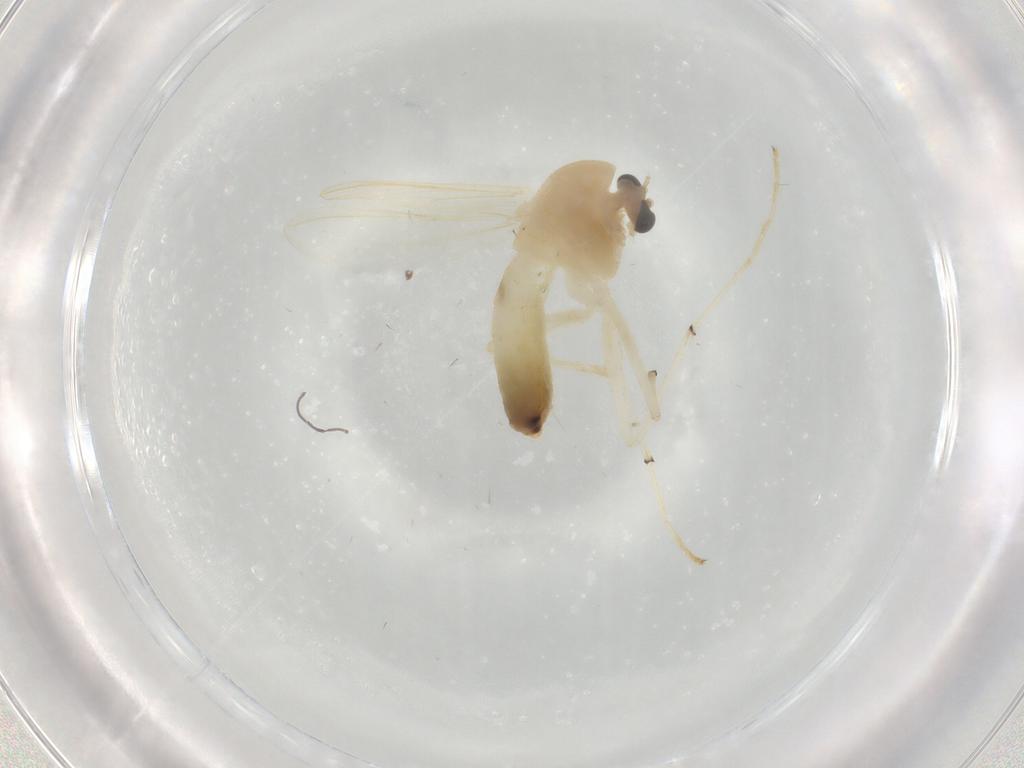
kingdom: Animalia
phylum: Arthropoda
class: Insecta
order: Diptera
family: Chironomidae
